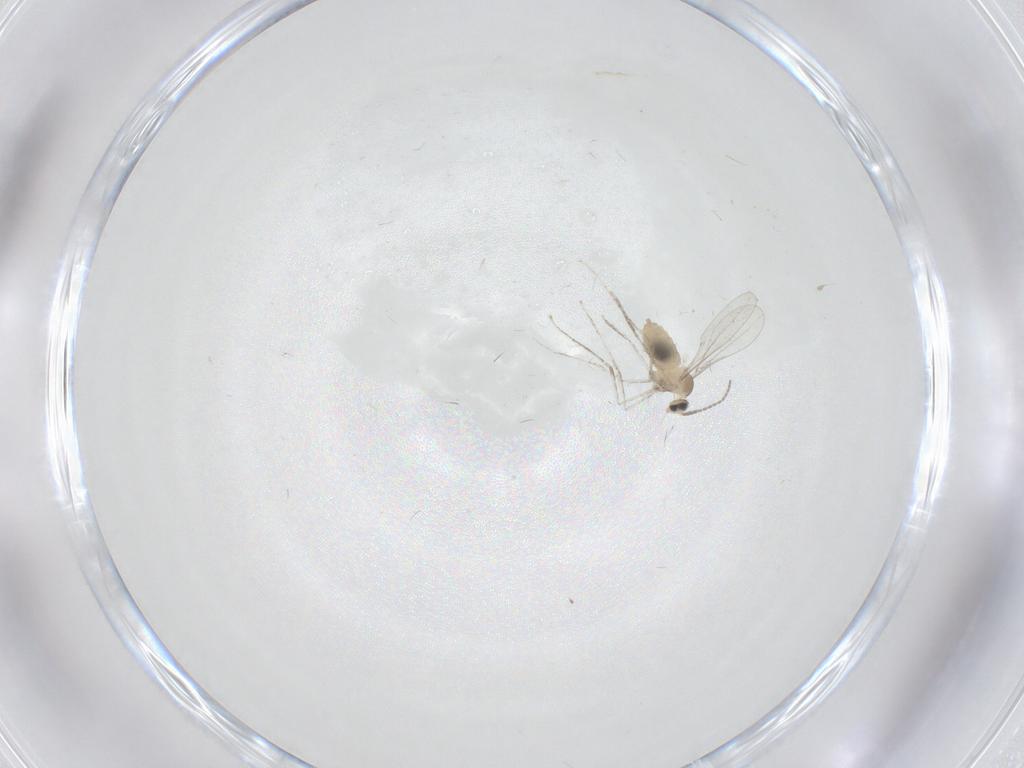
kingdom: Animalia
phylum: Arthropoda
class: Insecta
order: Diptera
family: Cecidomyiidae
